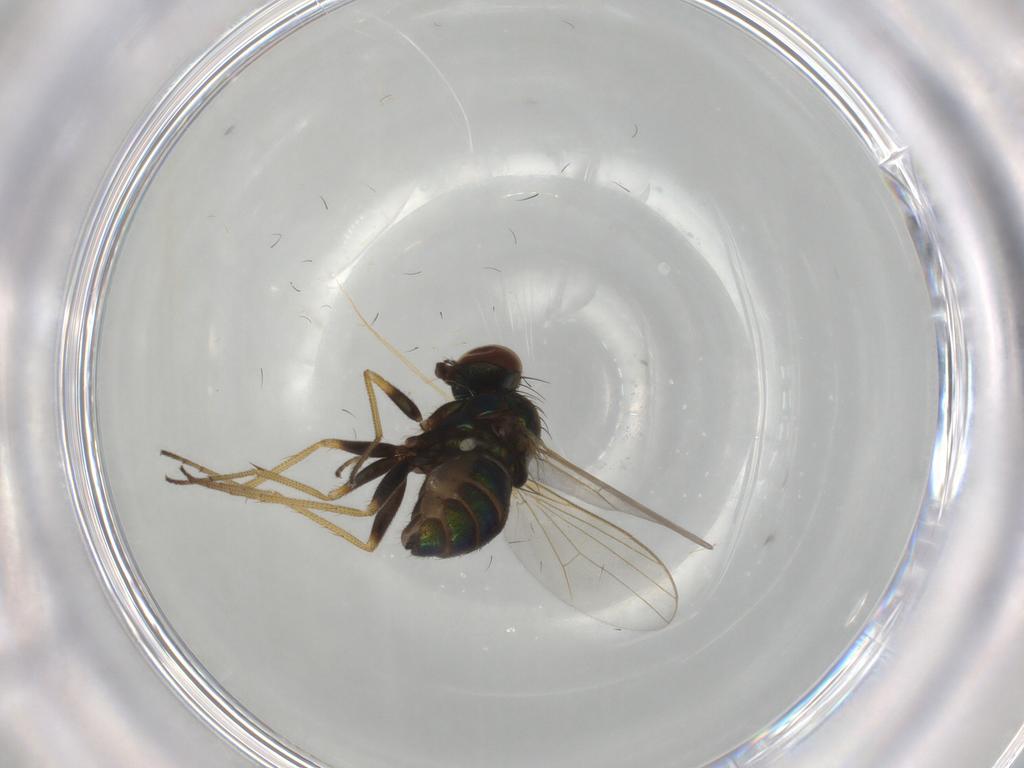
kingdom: Animalia
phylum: Arthropoda
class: Insecta
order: Diptera
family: Dolichopodidae
